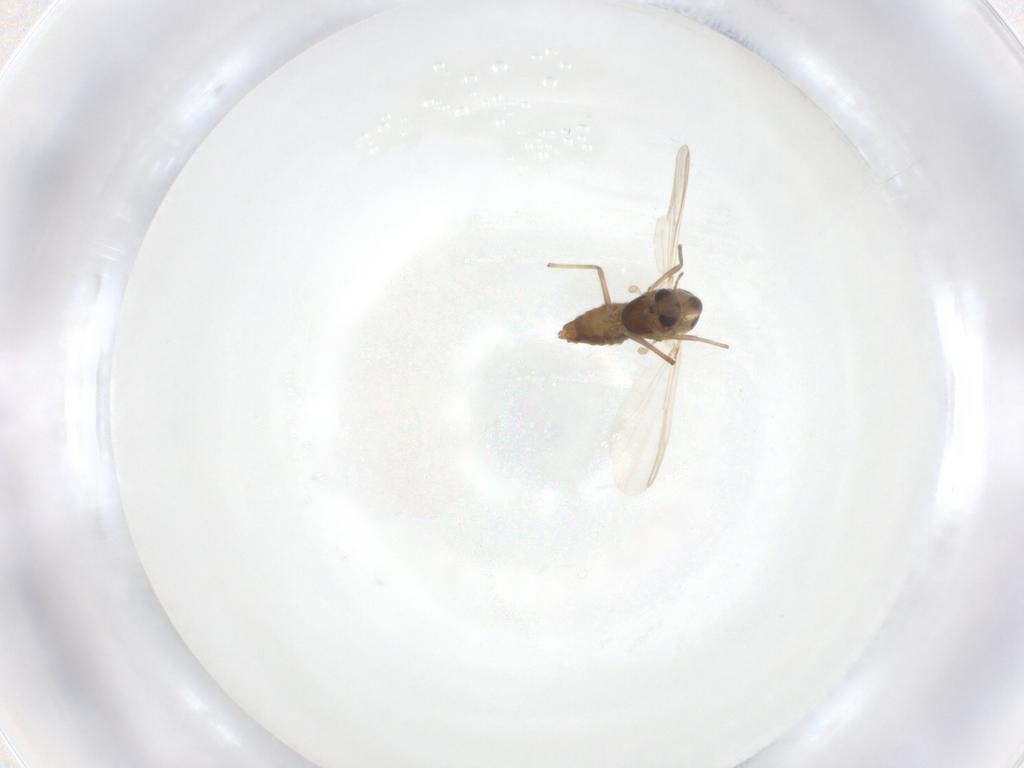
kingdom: Animalia
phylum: Arthropoda
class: Insecta
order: Diptera
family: Chironomidae
